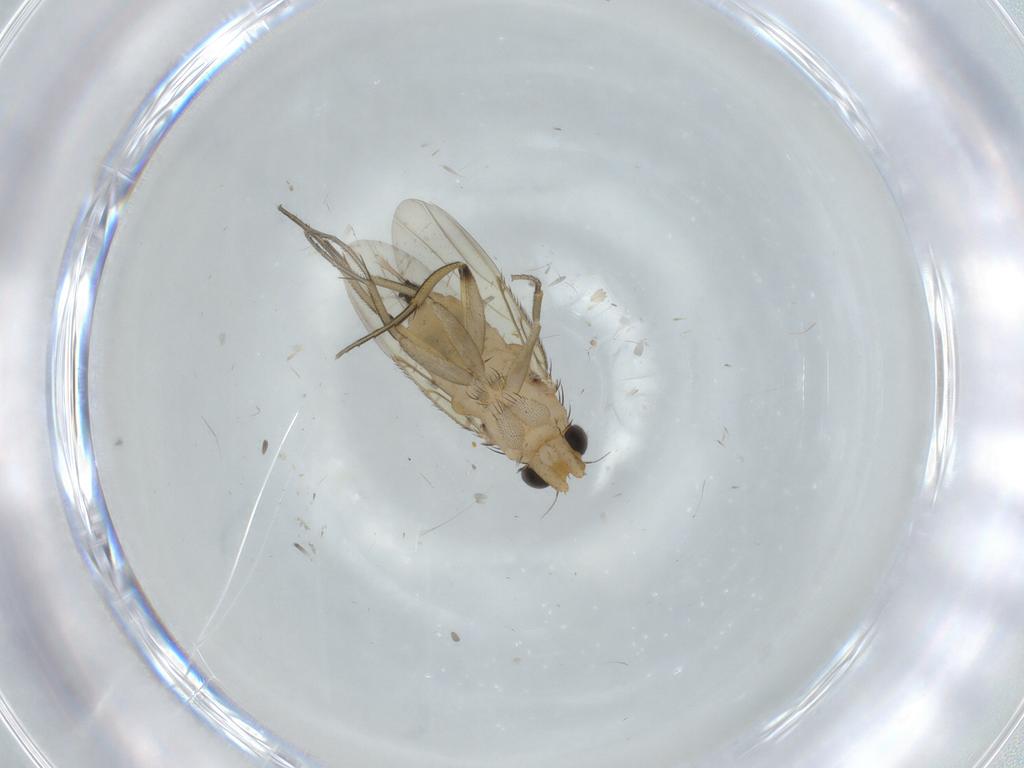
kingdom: Animalia
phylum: Arthropoda
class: Insecta
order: Diptera
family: Phoridae
